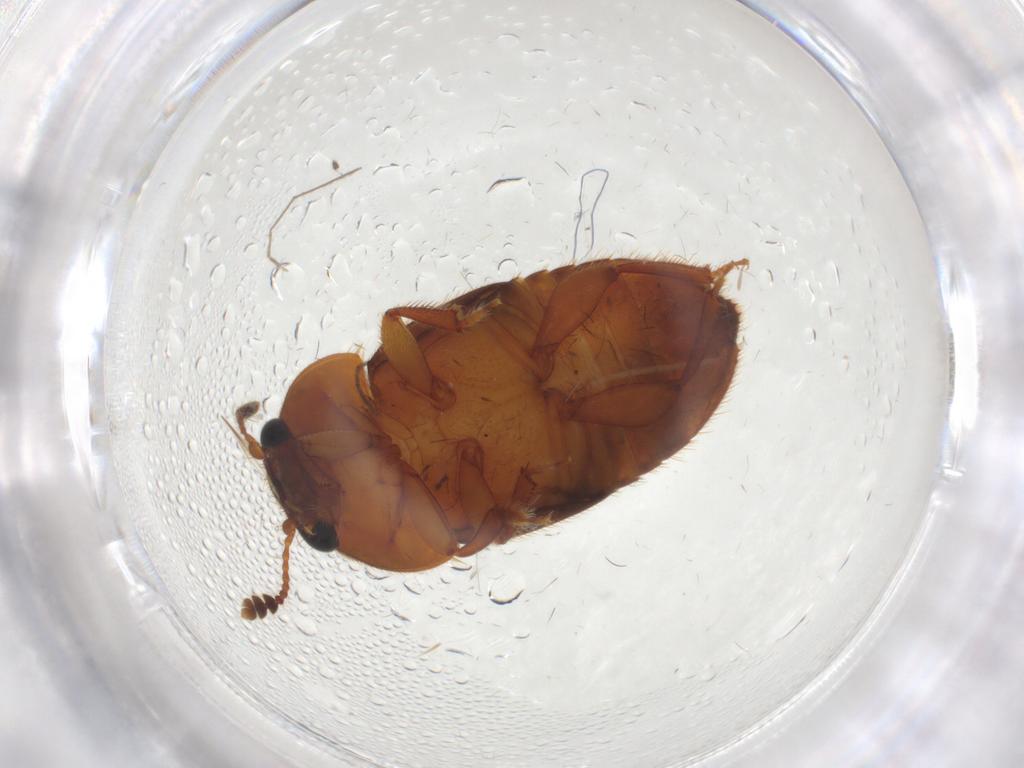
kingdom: Animalia
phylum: Arthropoda
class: Insecta
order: Coleoptera
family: Nitidulidae
